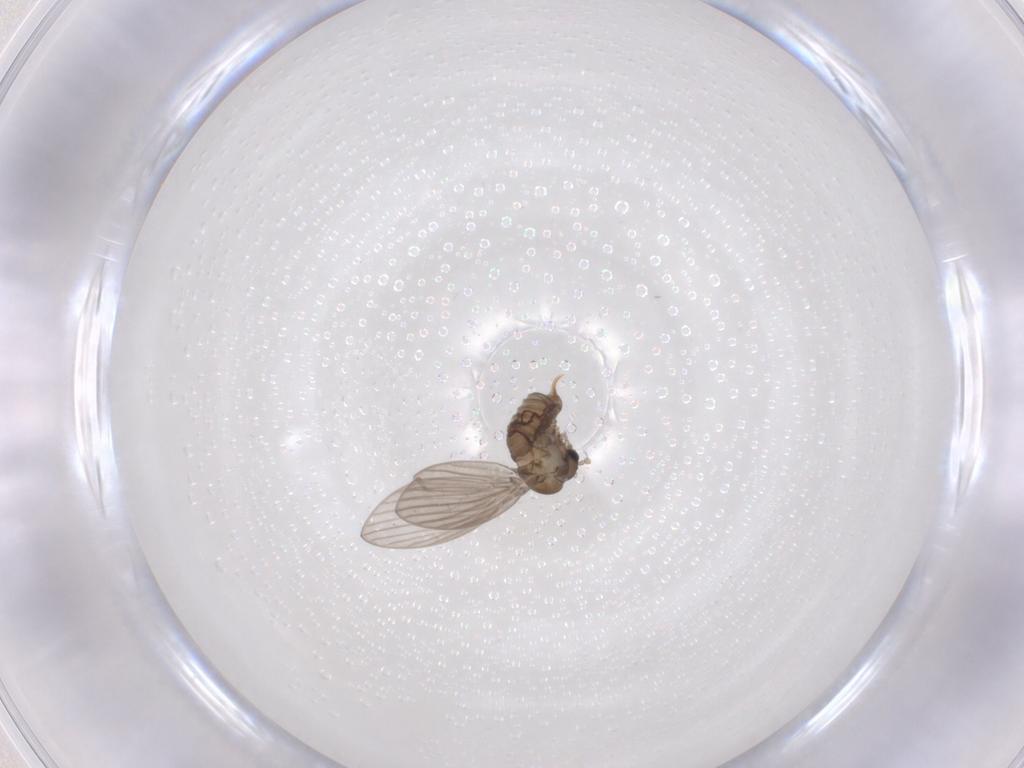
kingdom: Animalia
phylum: Arthropoda
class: Insecta
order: Diptera
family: Psychodidae
